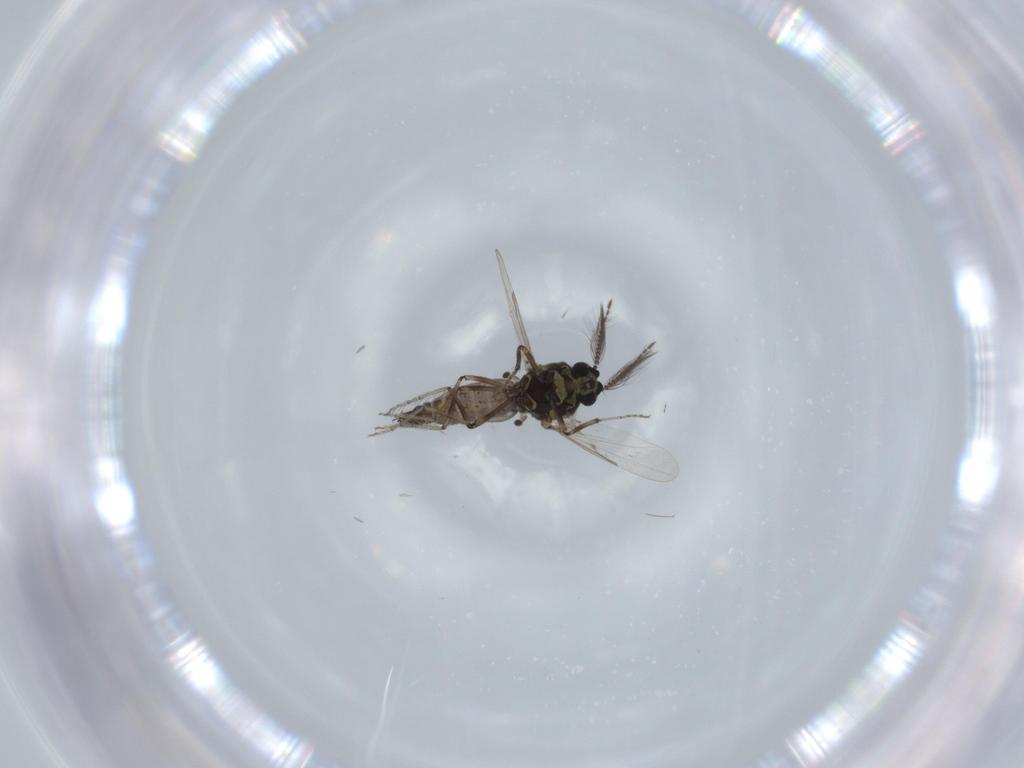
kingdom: Animalia
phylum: Arthropoda
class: Insecta
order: Diptera
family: Ceratopogonidae
